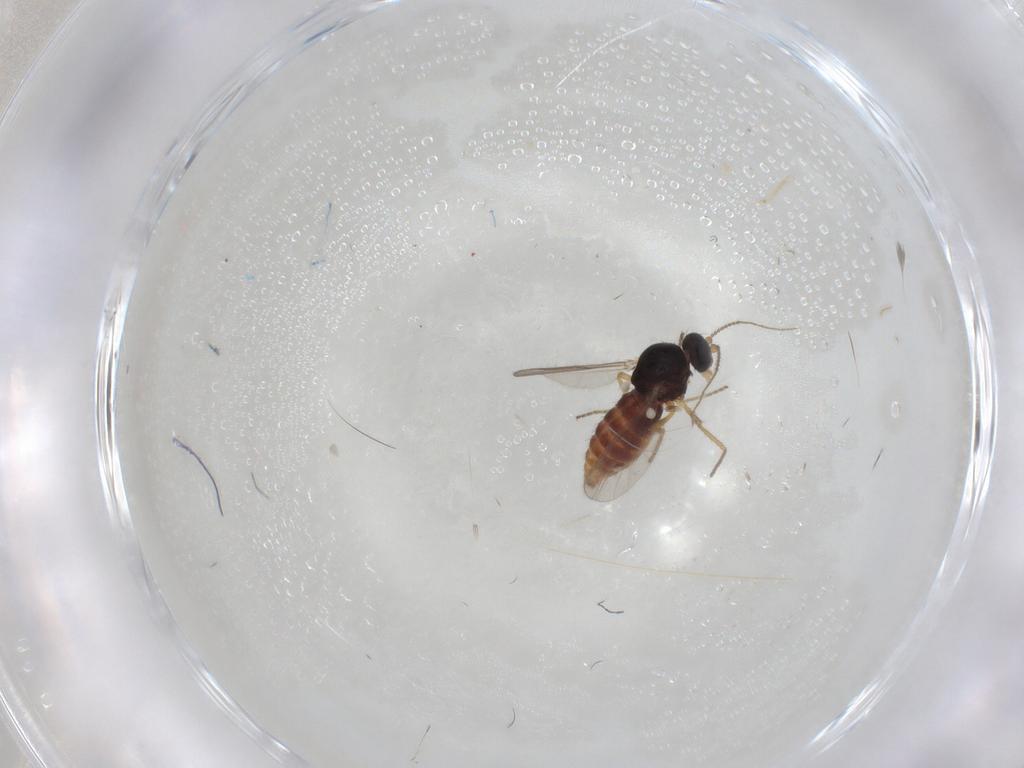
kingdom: Animalia
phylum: Arthropoda
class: Insecta
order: Diptera
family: Ceratopogonidae
